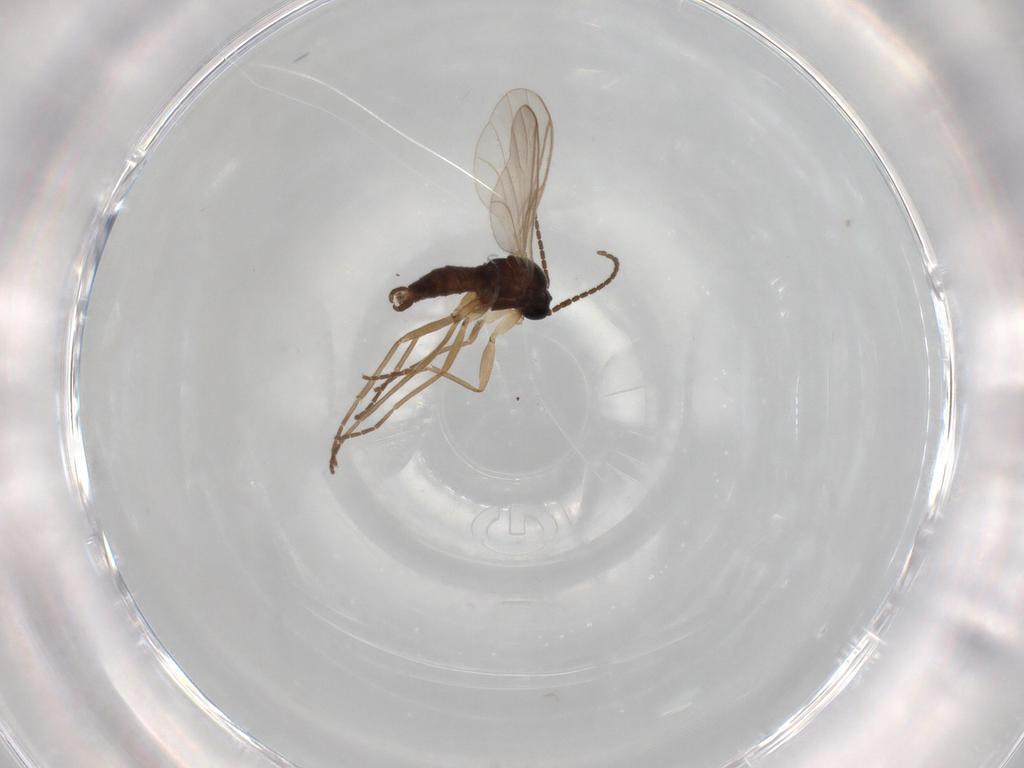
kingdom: Animalia
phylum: Arthropoda
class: Insecta
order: Diptera
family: Sciaridae
